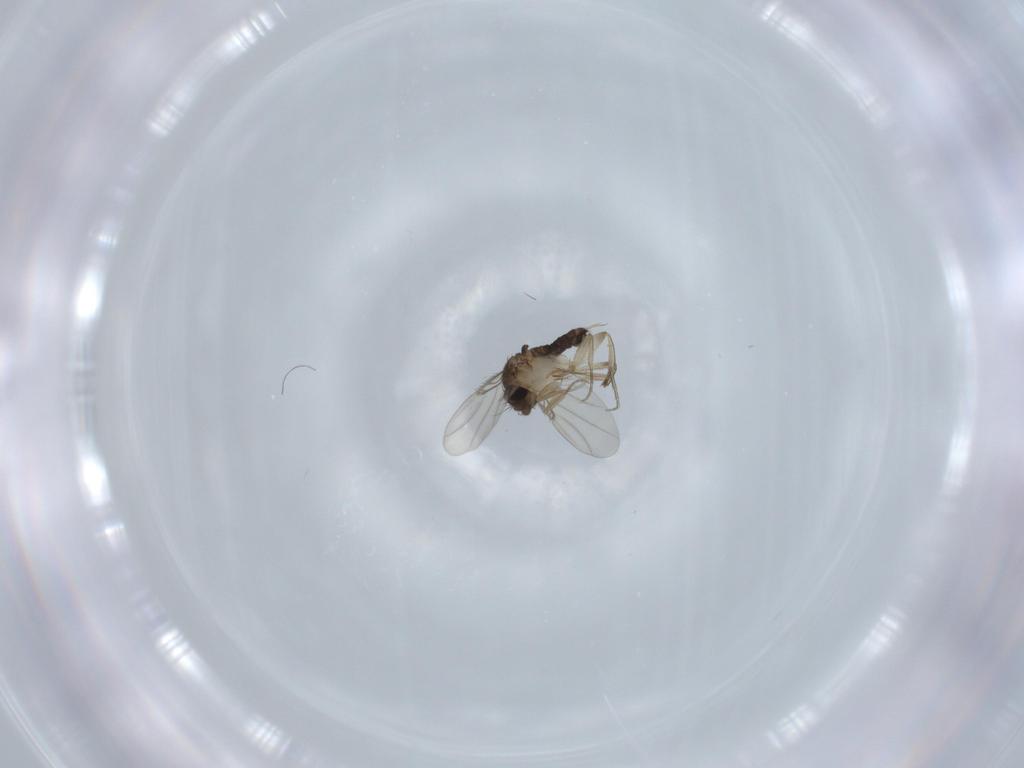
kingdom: Animalia
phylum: Arthropoda
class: Insecta
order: Diptera
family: Phoridae
